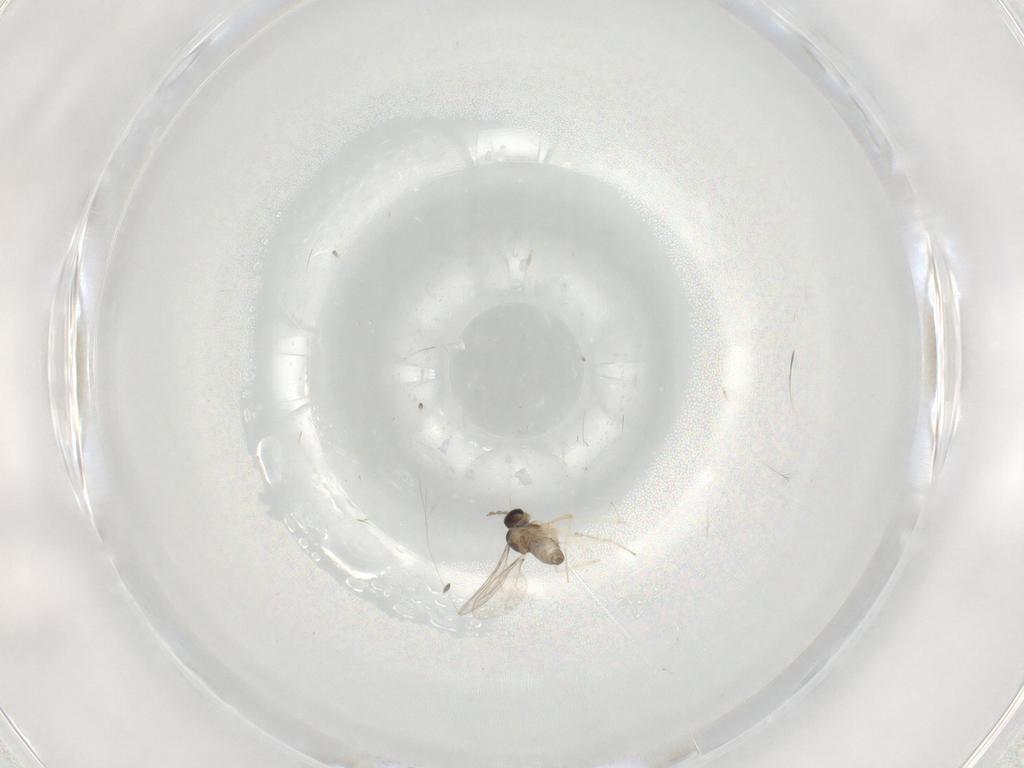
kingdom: Animalia
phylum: Arthropoda
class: Insecta
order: Diptera
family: Cecidomyiidae
